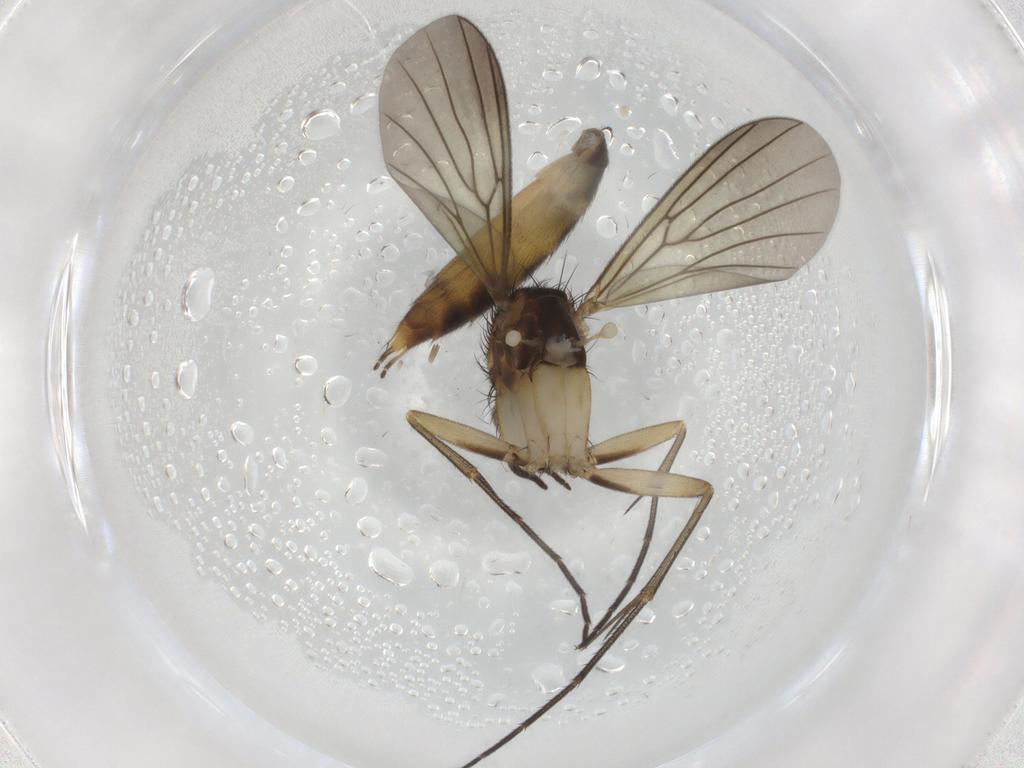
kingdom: Animalia
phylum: Arthropoda
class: Insecta
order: Diptera
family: Mycetophilidae
